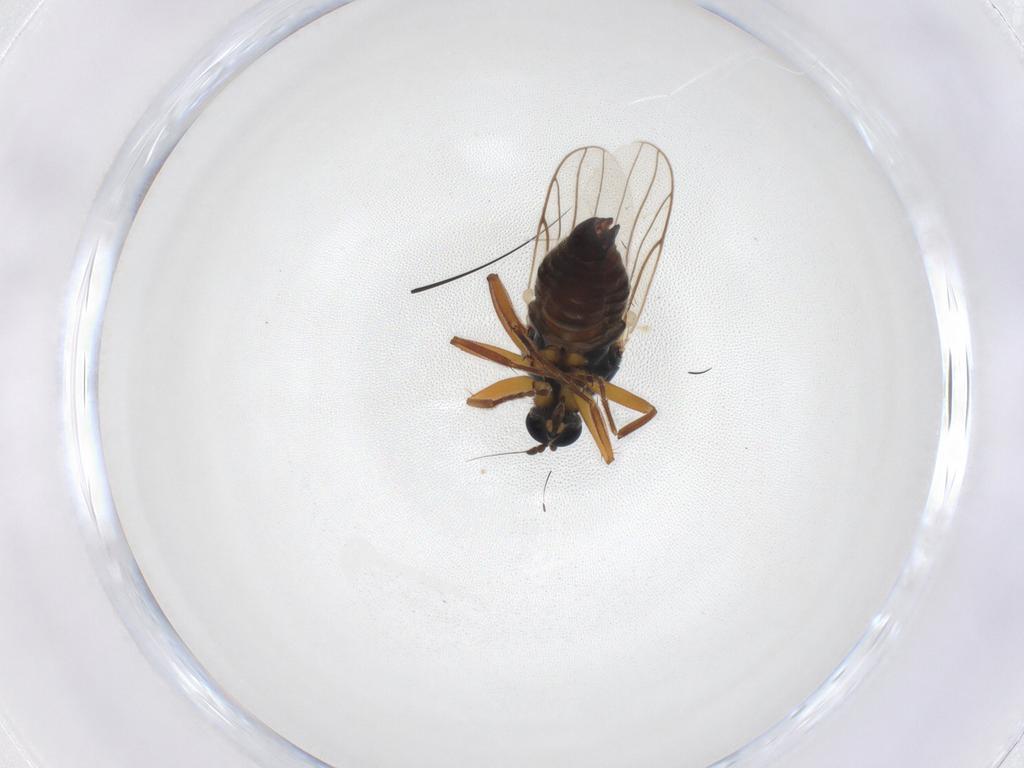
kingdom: Animalia
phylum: Arthropoda
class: Insecta
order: Diptera
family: Hybotidae
